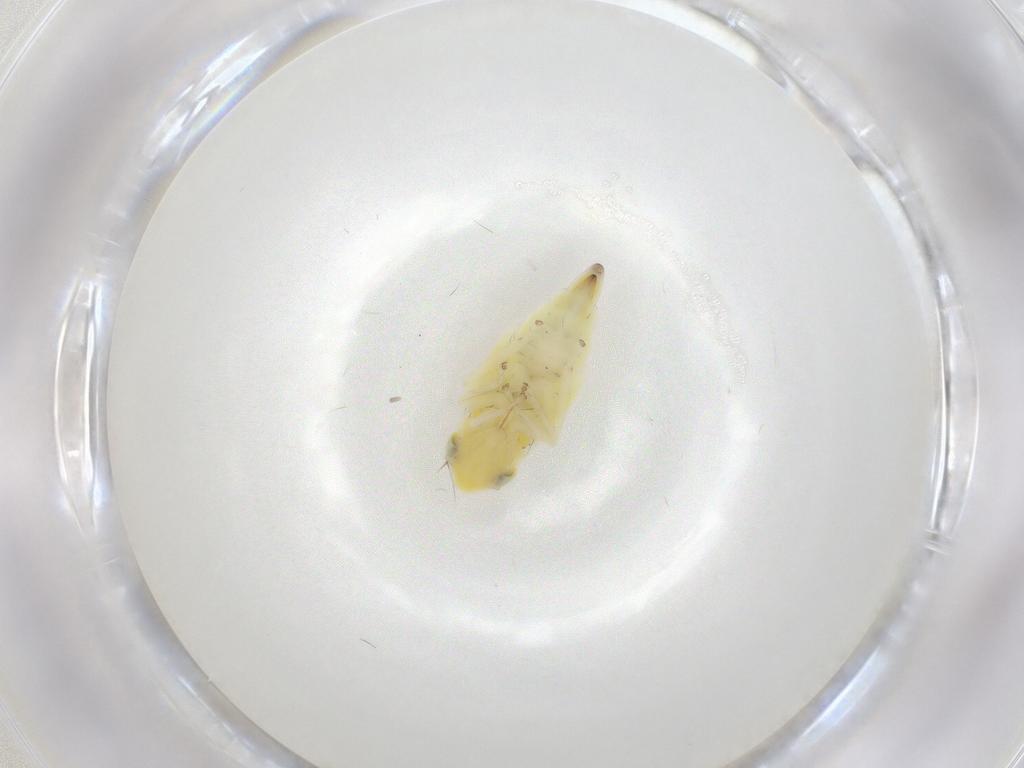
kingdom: Animalia
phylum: Arthropoda
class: Insecta
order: Hemiptera
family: Cicadellidae
